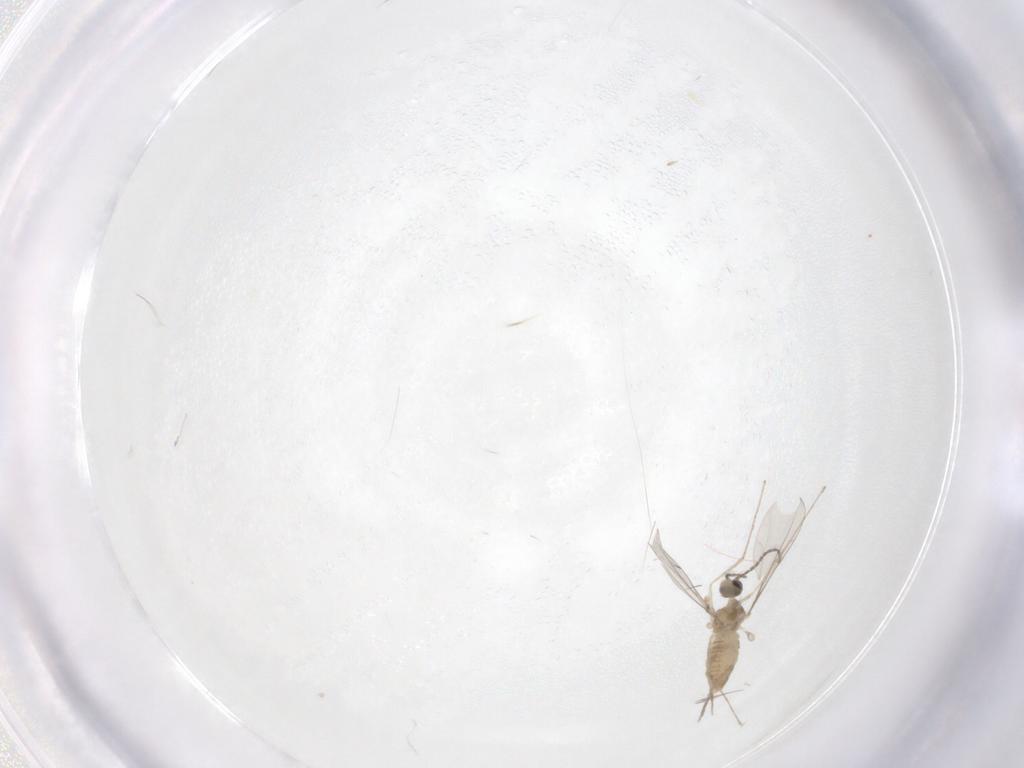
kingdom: Animalia
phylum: Arthropoda
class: Insecta
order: Diptera
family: Cecidomyiidae
